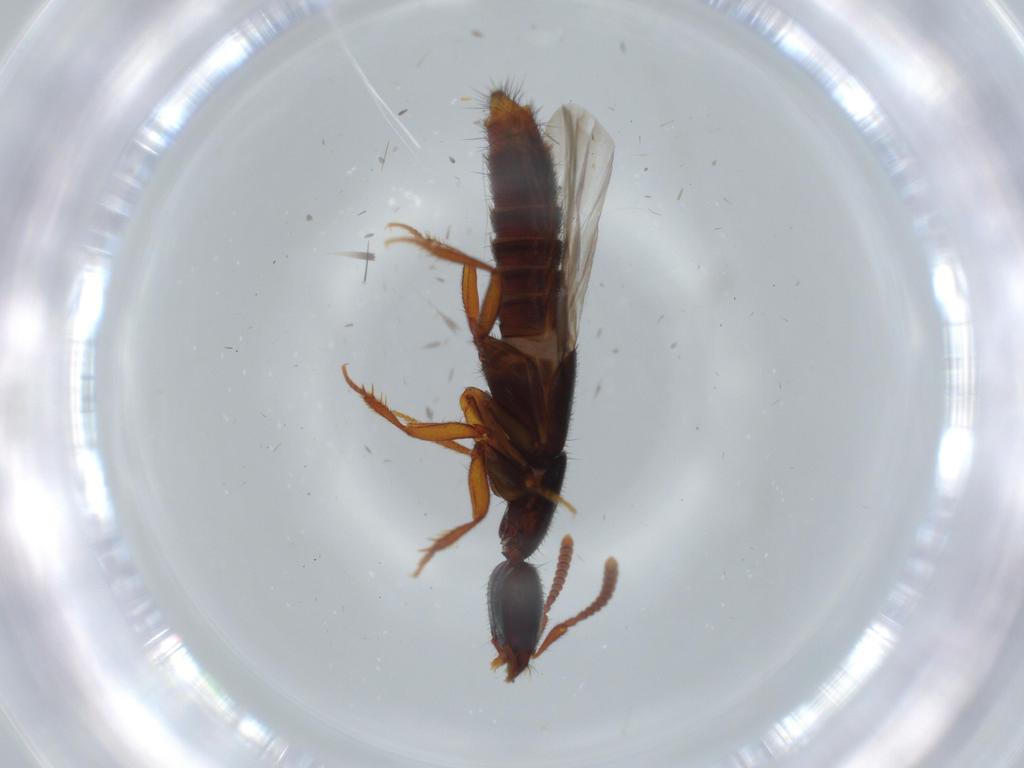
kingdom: Animalia
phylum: Arthropoda
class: Insecta
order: Coleoptera
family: Staphylinidae
